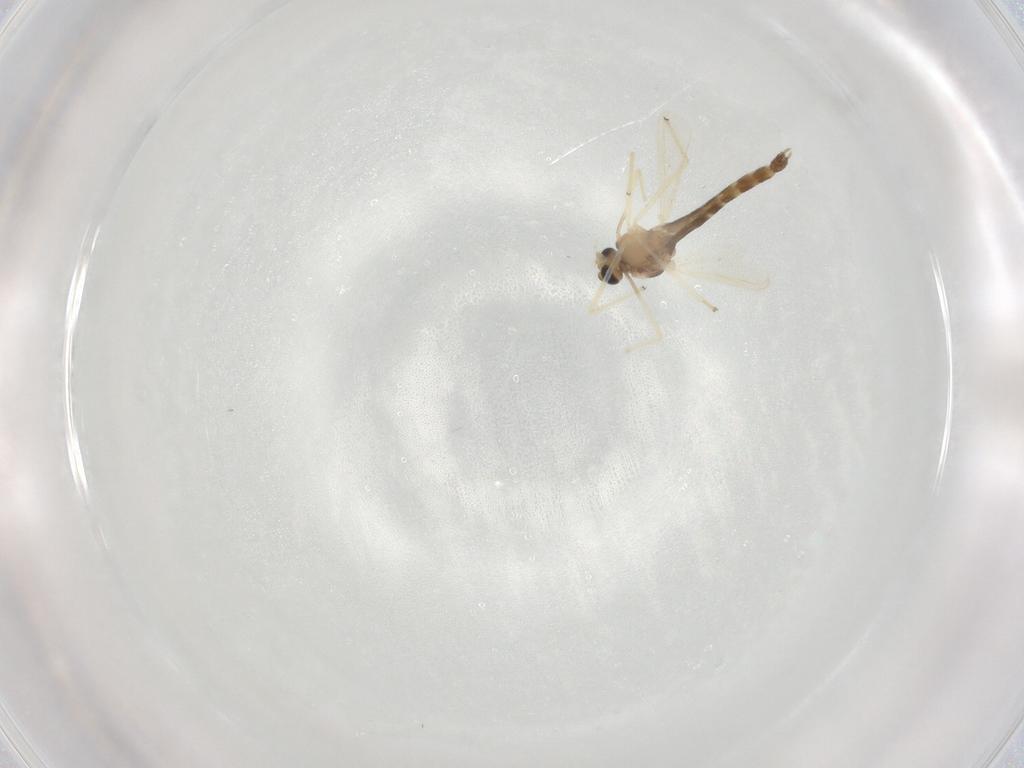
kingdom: Animalia
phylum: Arthropoda
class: Insecta
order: Diptera
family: Chironomidae
